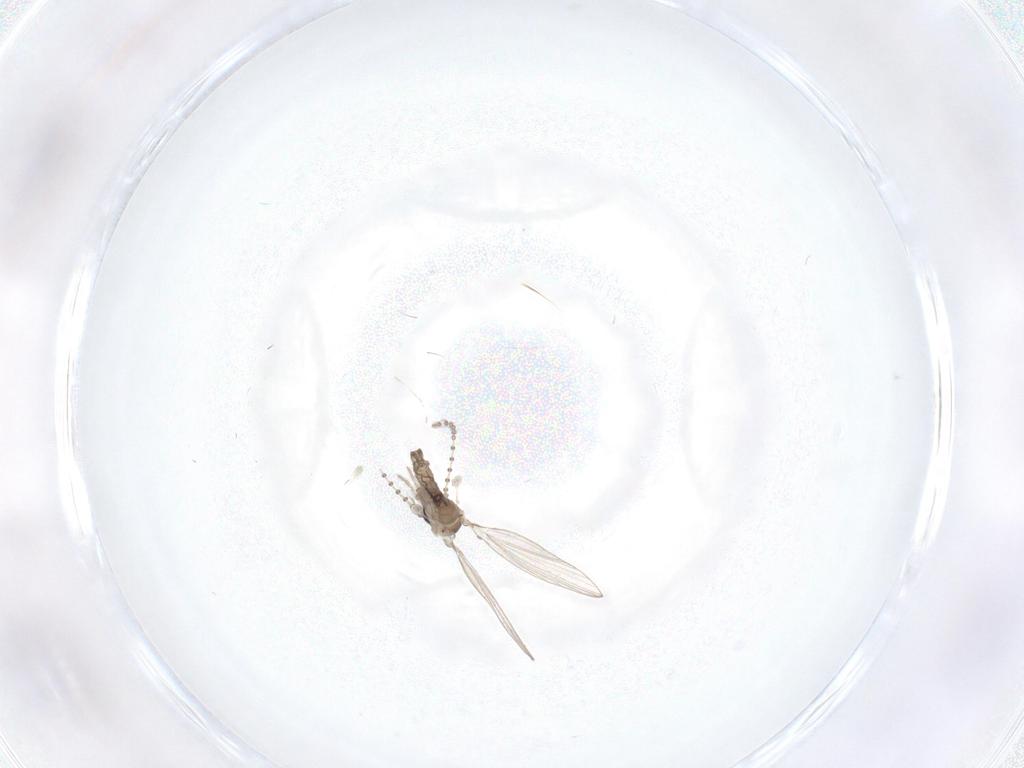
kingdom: Animalia
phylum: Arthropoda
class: Insecta
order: Diptera
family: Psychodidae
